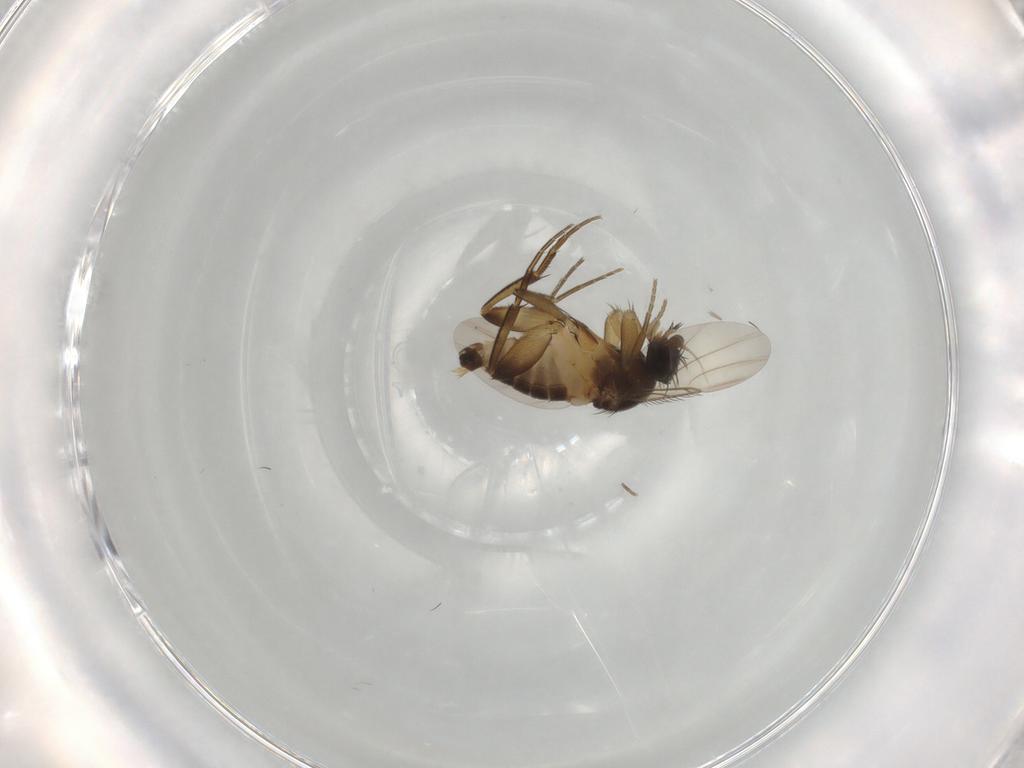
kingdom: Animalia
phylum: Arthropoda
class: Insecta
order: Diptera
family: Phoridae
